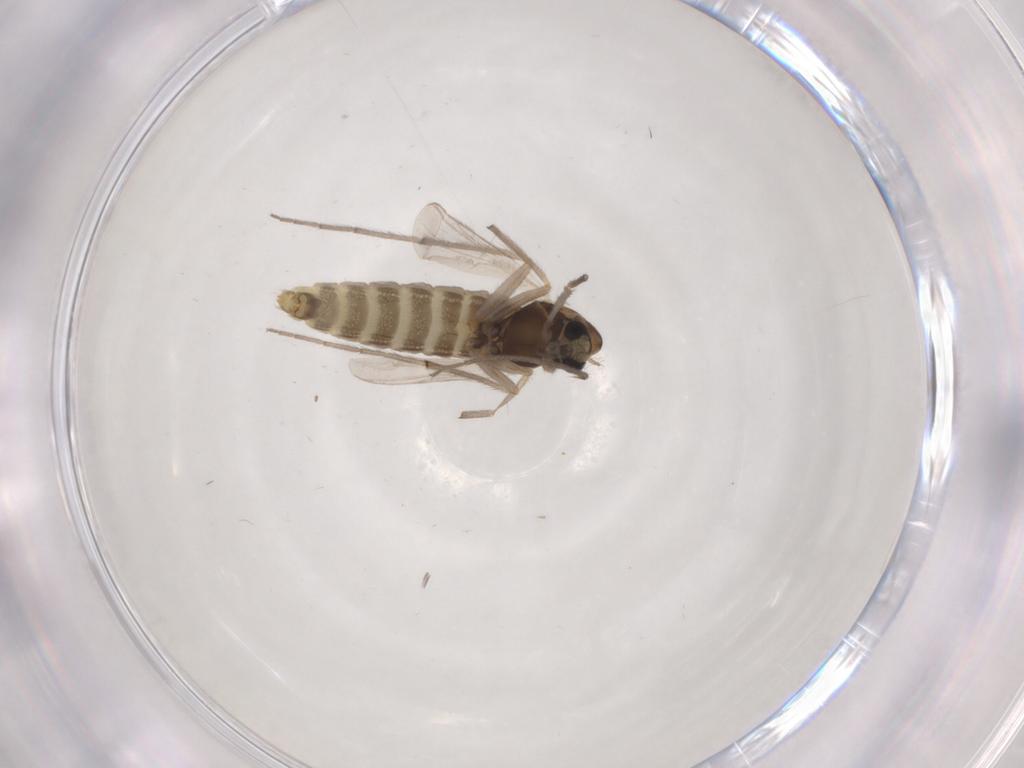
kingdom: Animalia
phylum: Arthropoda
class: Insecta
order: Diptera
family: Chironomidae
